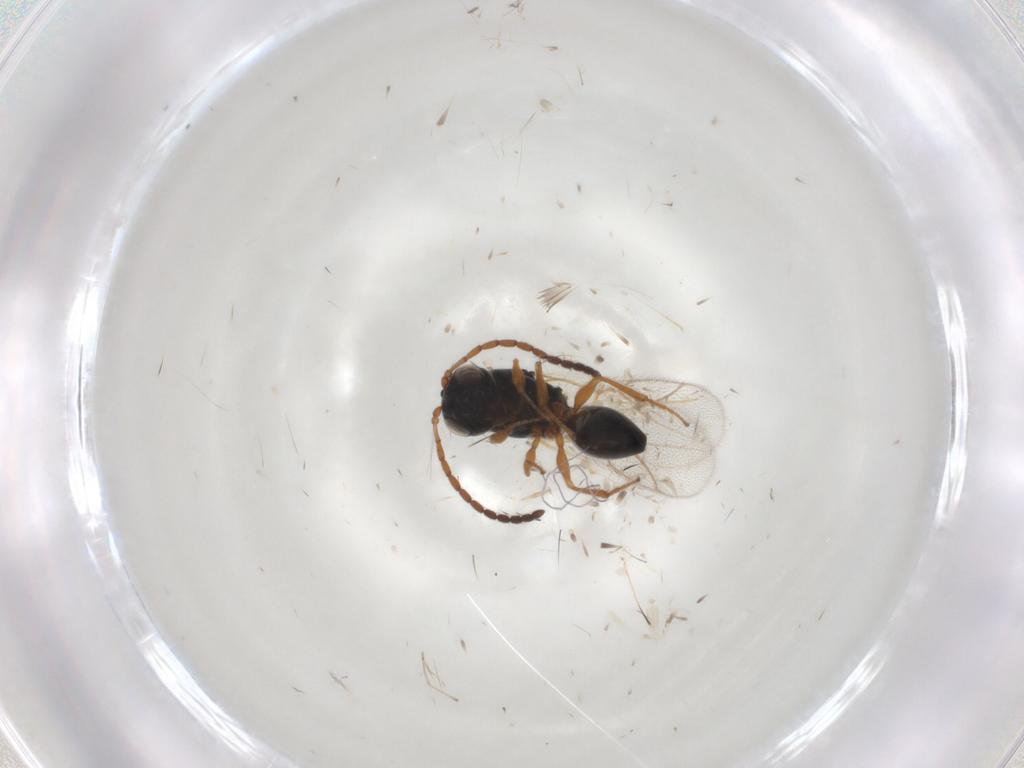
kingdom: Animalia
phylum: Arthropoda
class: Insecta
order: Hymenoptera
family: Figitidae
